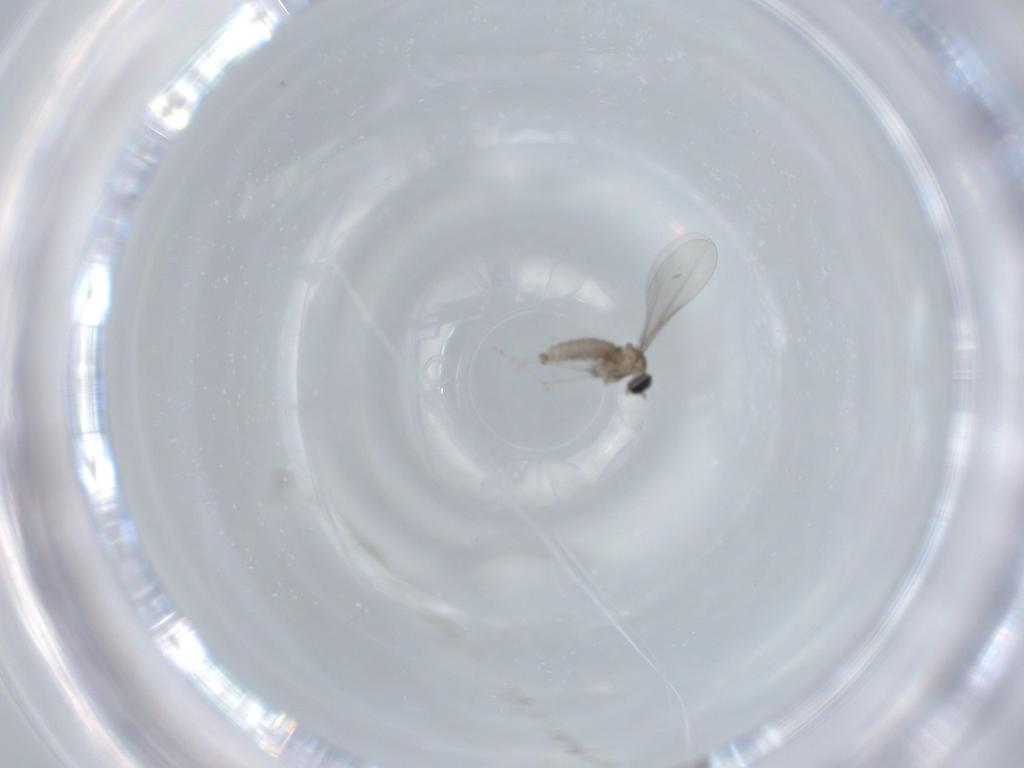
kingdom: Animalia
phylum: Arthropoda
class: Insecta
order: Diptera
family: Cecidomyiidae
